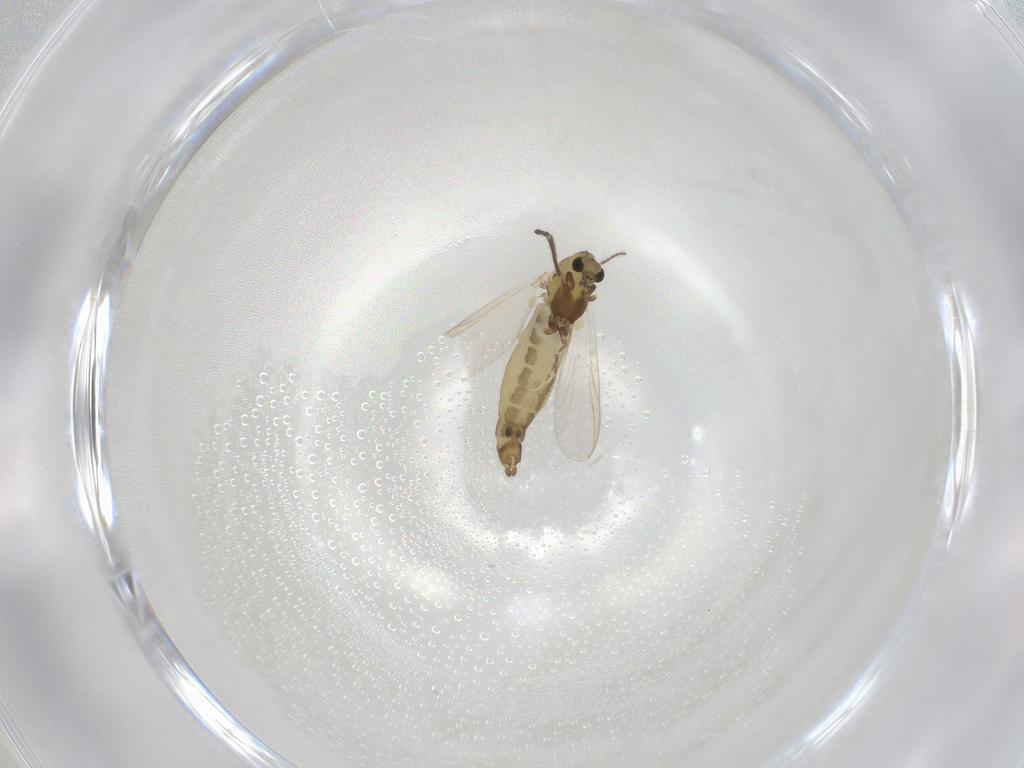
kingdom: Animalia
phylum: Arthropoda
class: Insecta
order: Diptera
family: Chironomidae
